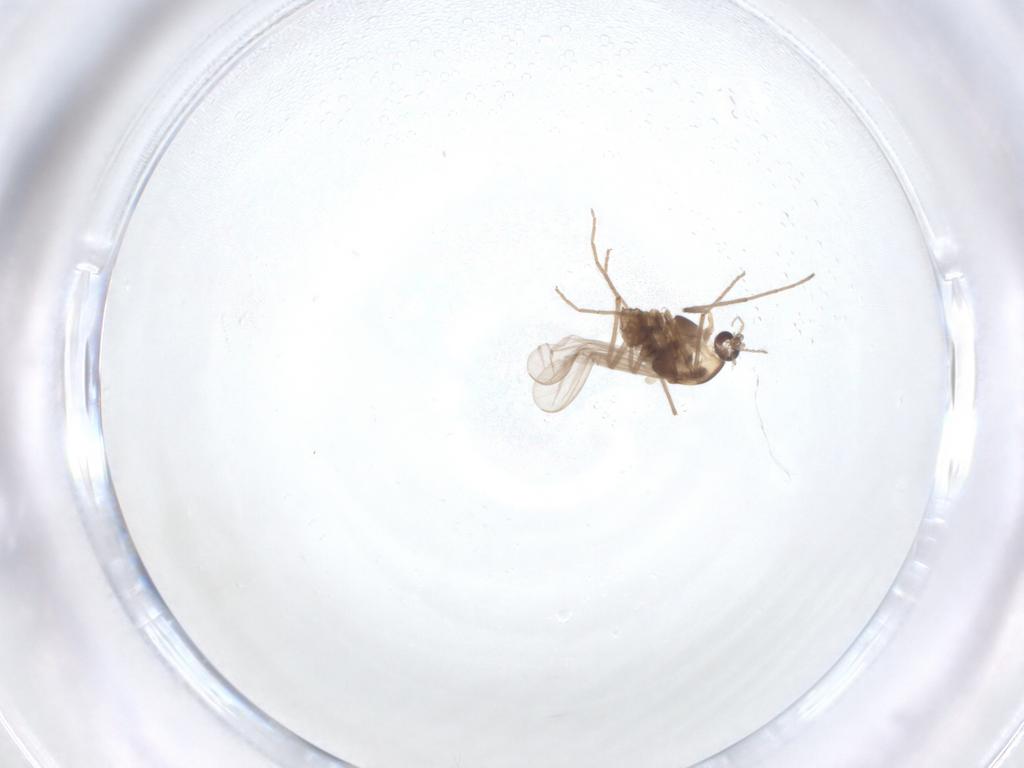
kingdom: Animalia
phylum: Arthropoda
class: Insecta
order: Diptera
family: Chironomidae
